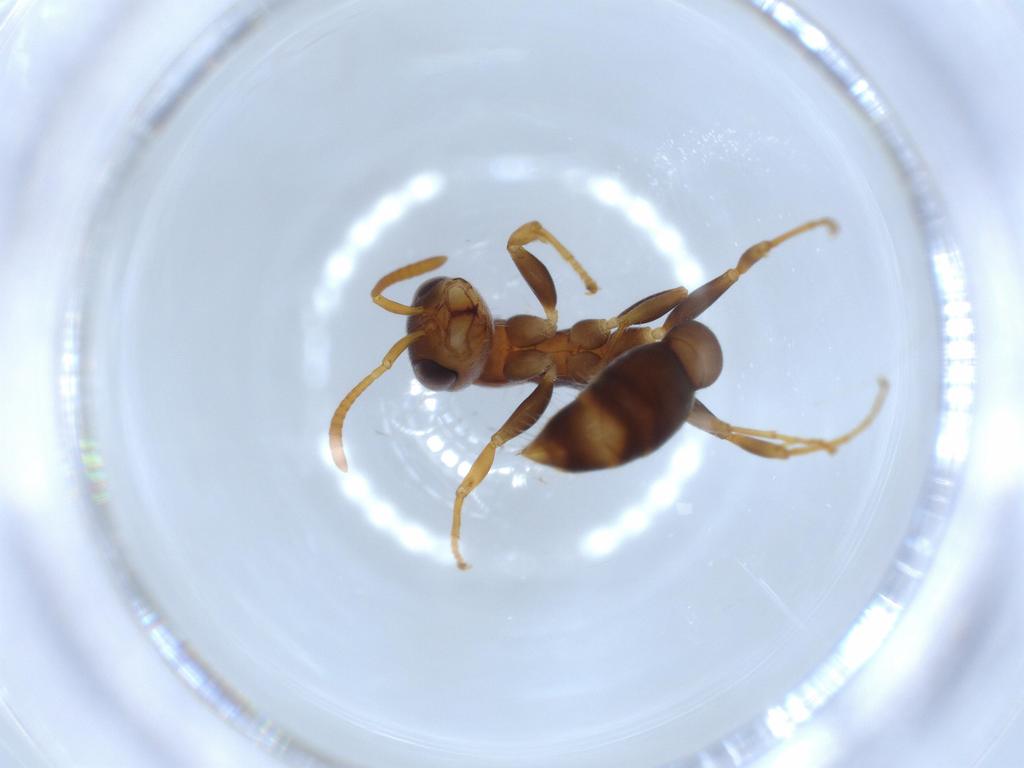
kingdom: Animalia
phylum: Arthropoda
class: Insecta
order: Hymenoptera
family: Formicidae
